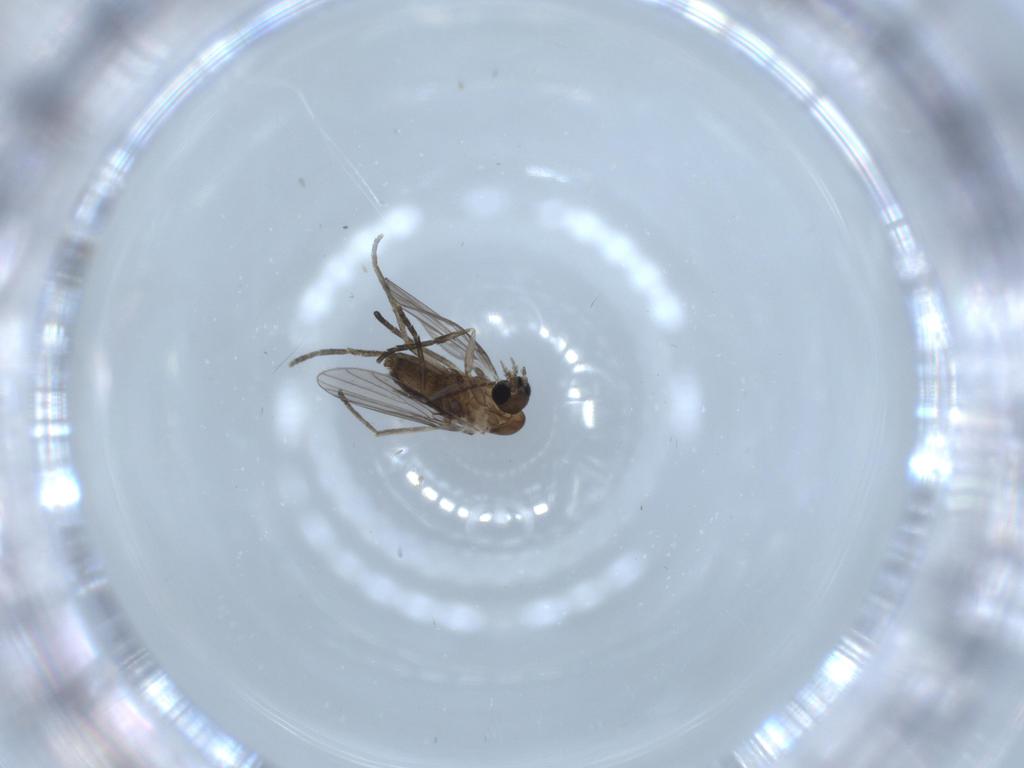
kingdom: Animalia
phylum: Arthropoda
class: Insecta
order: Diptera
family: Psychodidae
